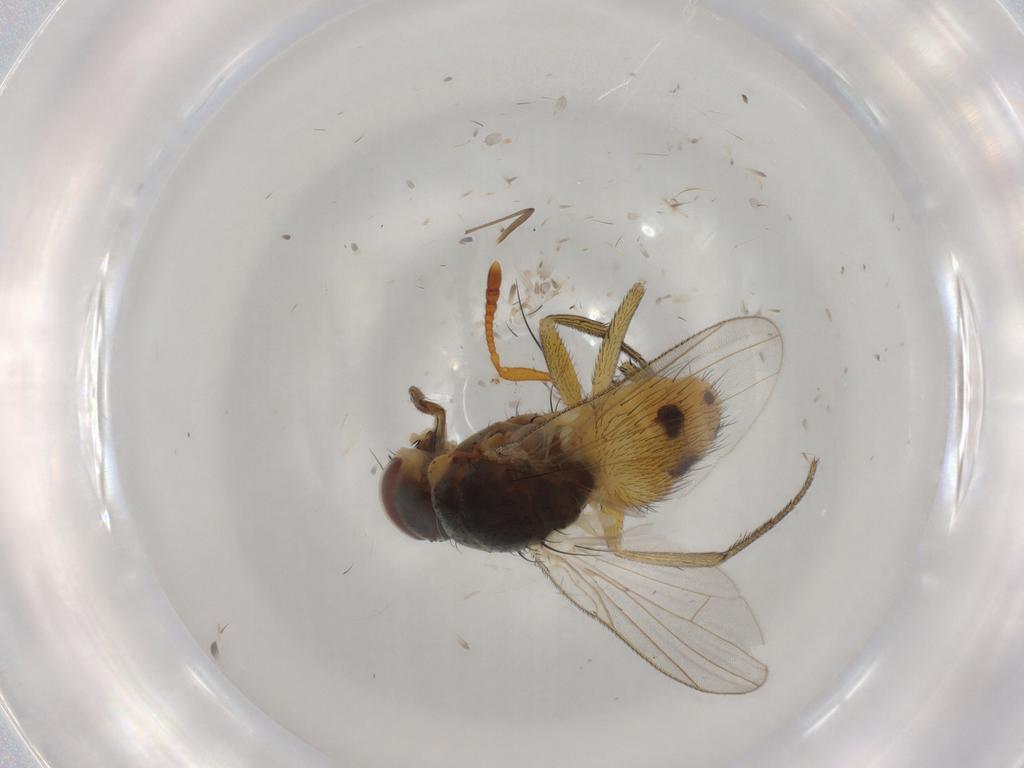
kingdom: Animalia
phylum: Arthropoda
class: Insecta
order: Diptera
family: Muscidae
